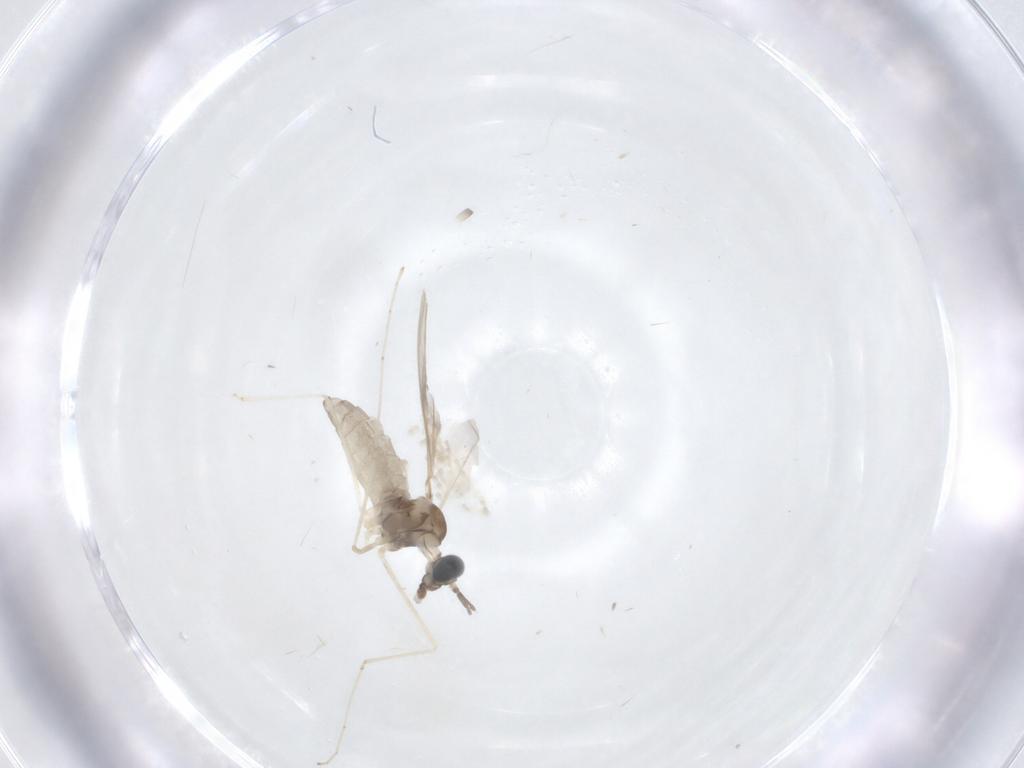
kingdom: Animalia
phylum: Arthropoda
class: Insecta
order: Diptera
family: Cecidomyiidae
